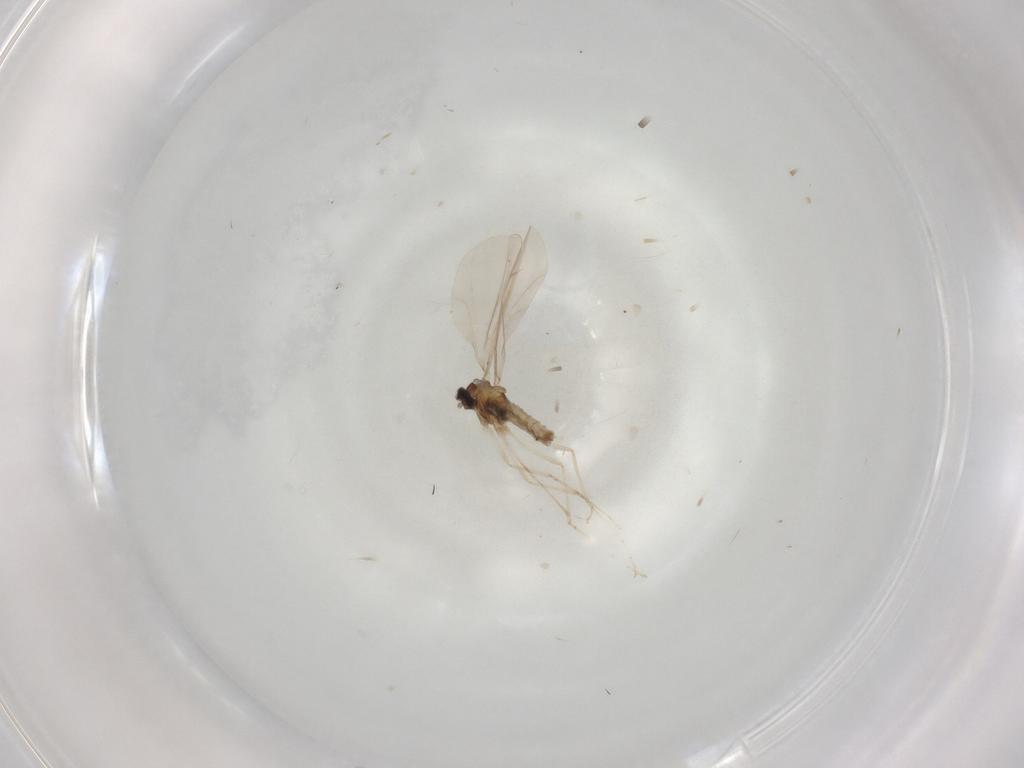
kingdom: Animalia
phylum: Arthropoda
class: Insecta
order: Diptera
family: Cecidomyiidae
